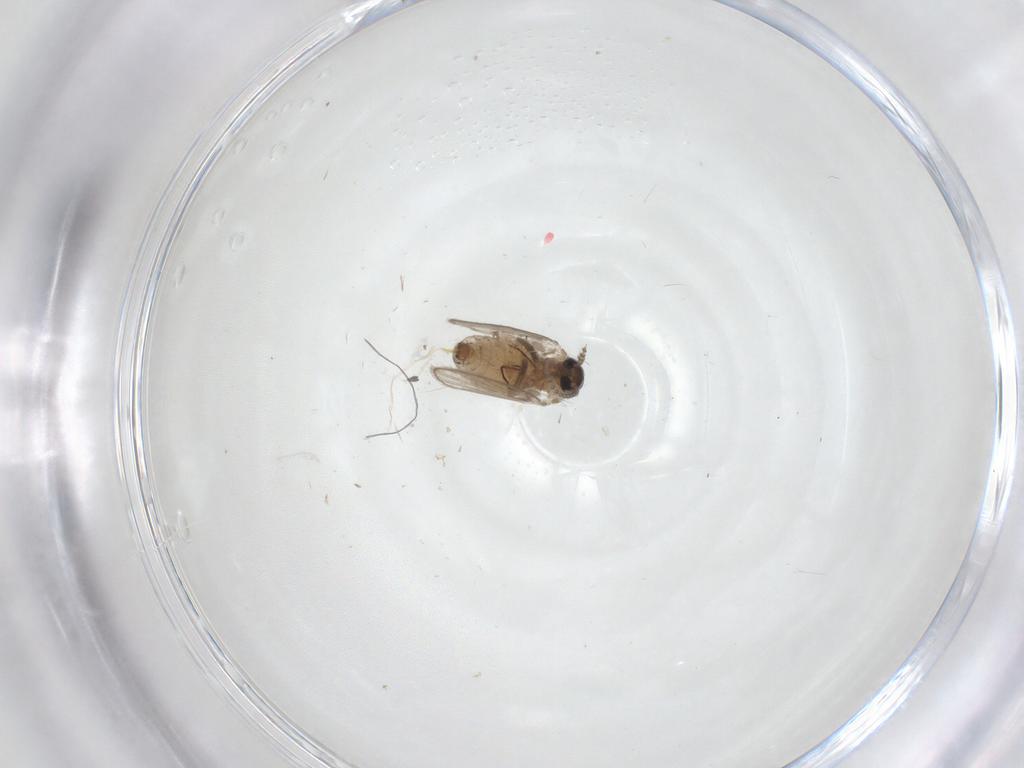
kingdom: Animalia
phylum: Arthropoda
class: Insecta
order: Diptera
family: Psychodidae
